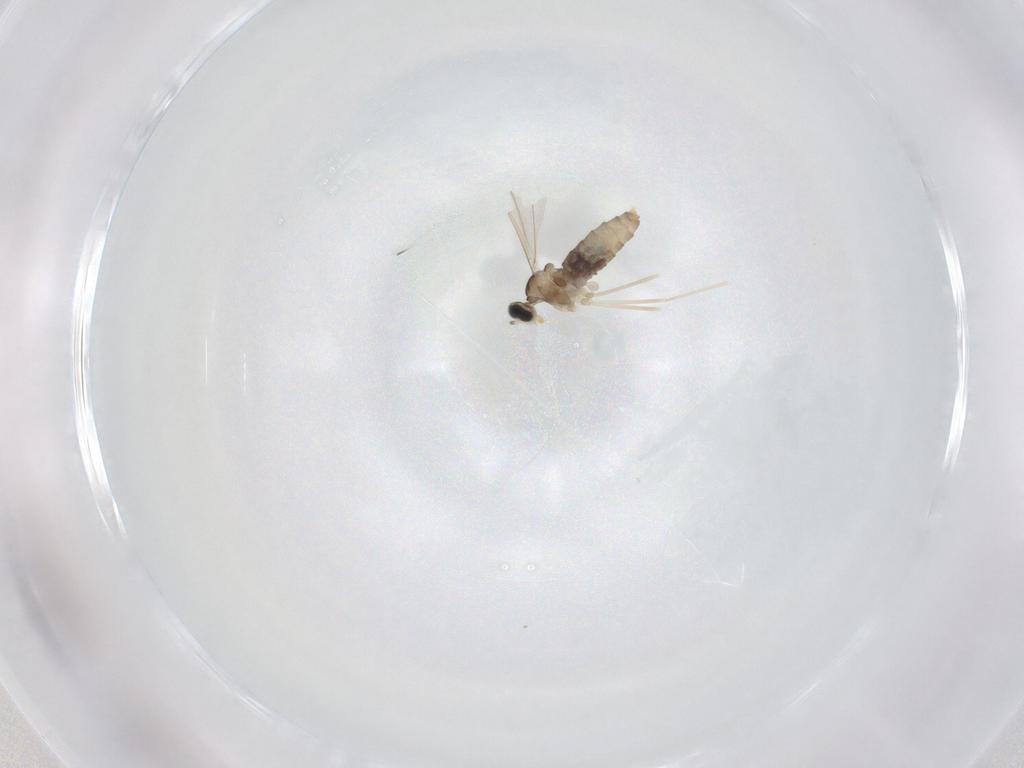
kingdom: Animalia
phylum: Arthropoda
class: Insecta
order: Diptera
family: Cecidomyiidae
